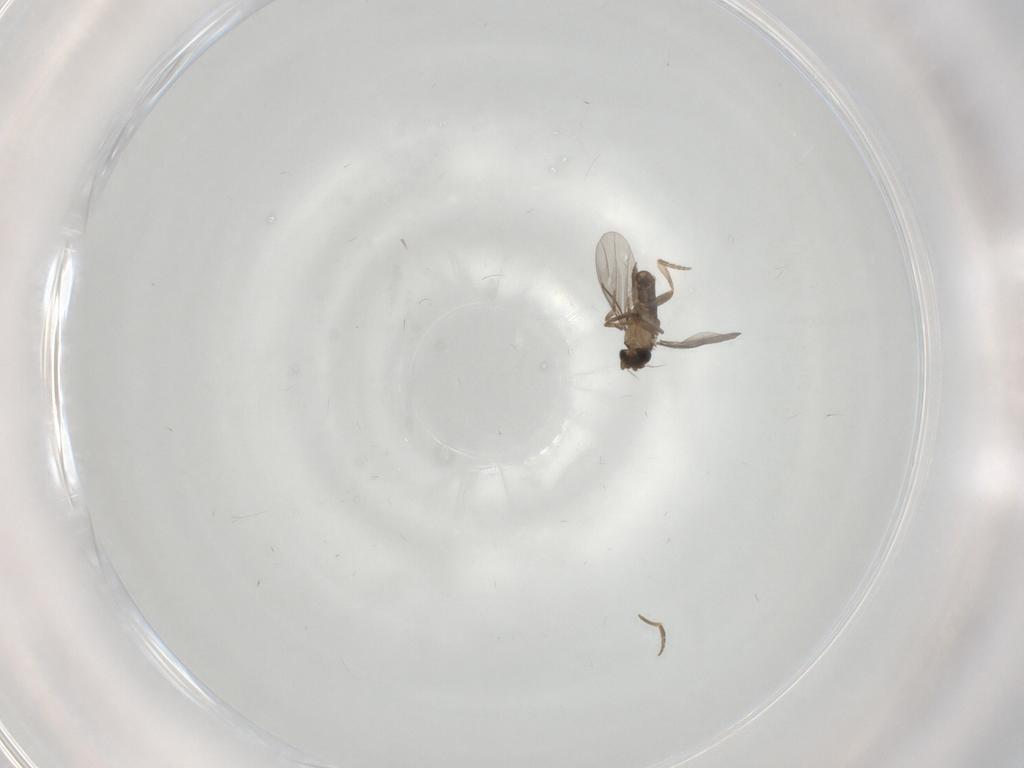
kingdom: Animalia
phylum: Arthropoda
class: Insecta
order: Diptera
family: Ceratopogonidae
